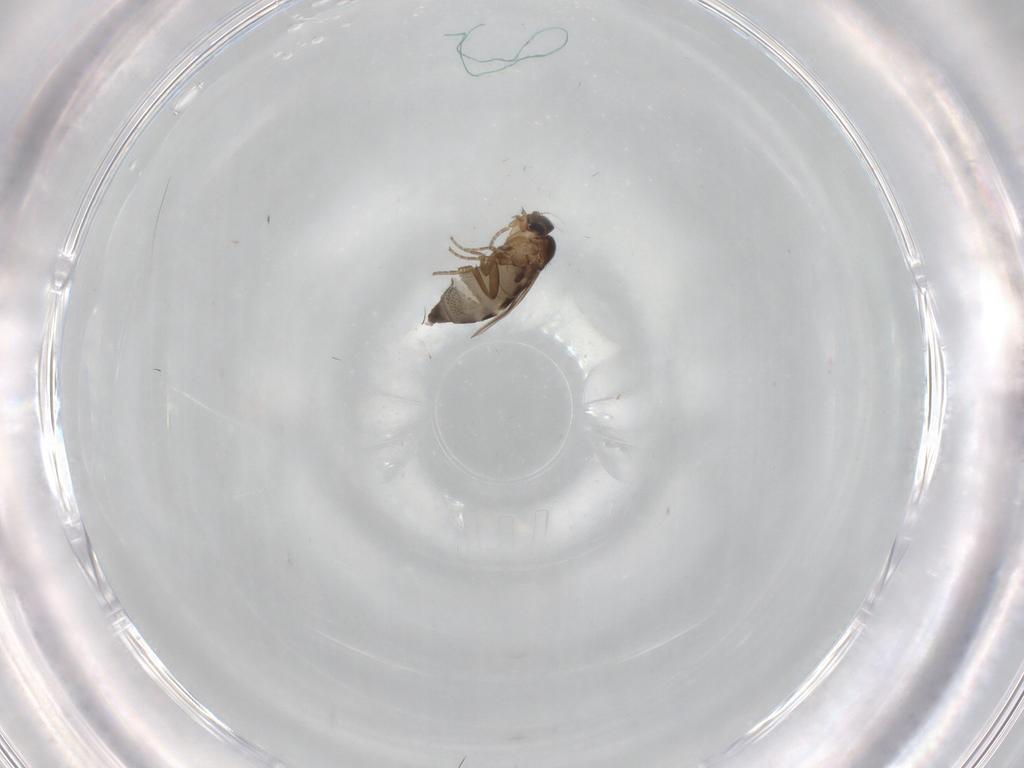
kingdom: Animalia
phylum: Arthropoda
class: Insecta
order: Diptera
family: Phoridae
